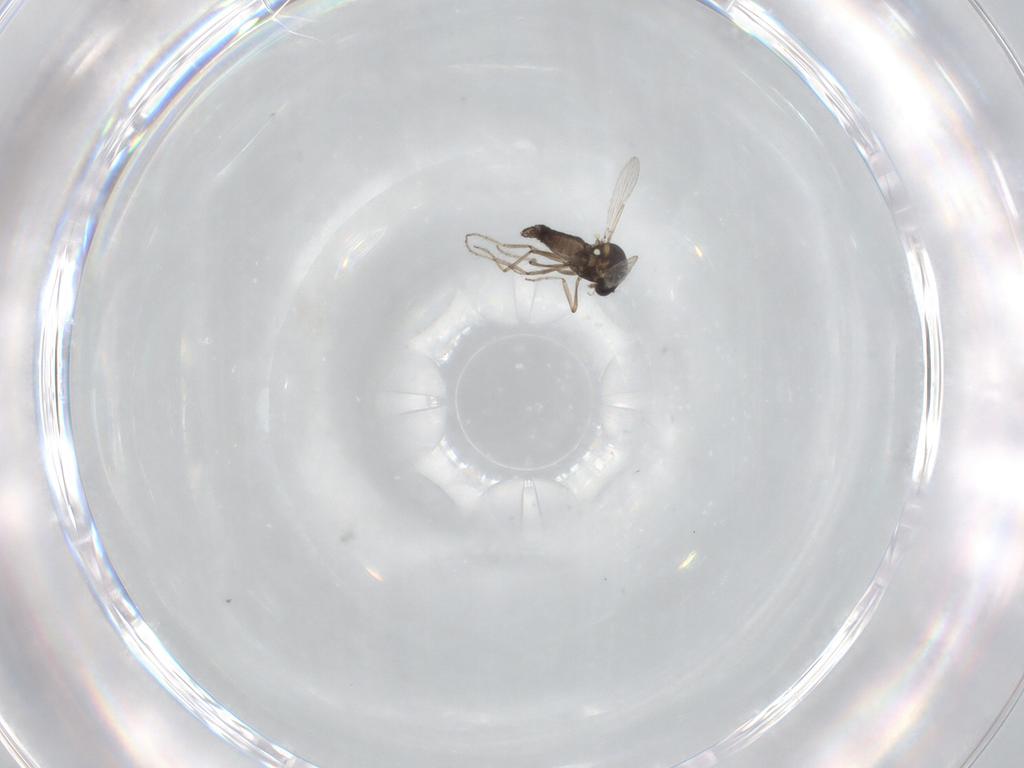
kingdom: Animalia
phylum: Arthropoda
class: Insecta
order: Diptera
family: Ceratopogonidae
